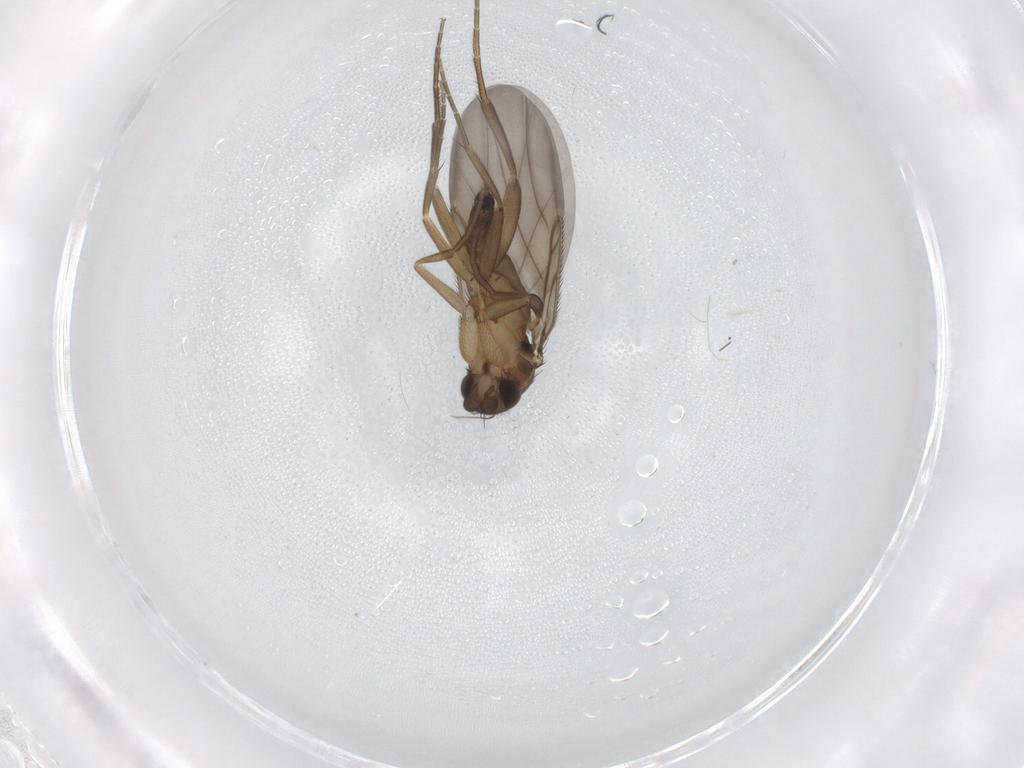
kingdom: Animalia
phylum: Arthropoda
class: Insecta
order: Diptera
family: Phoridae
